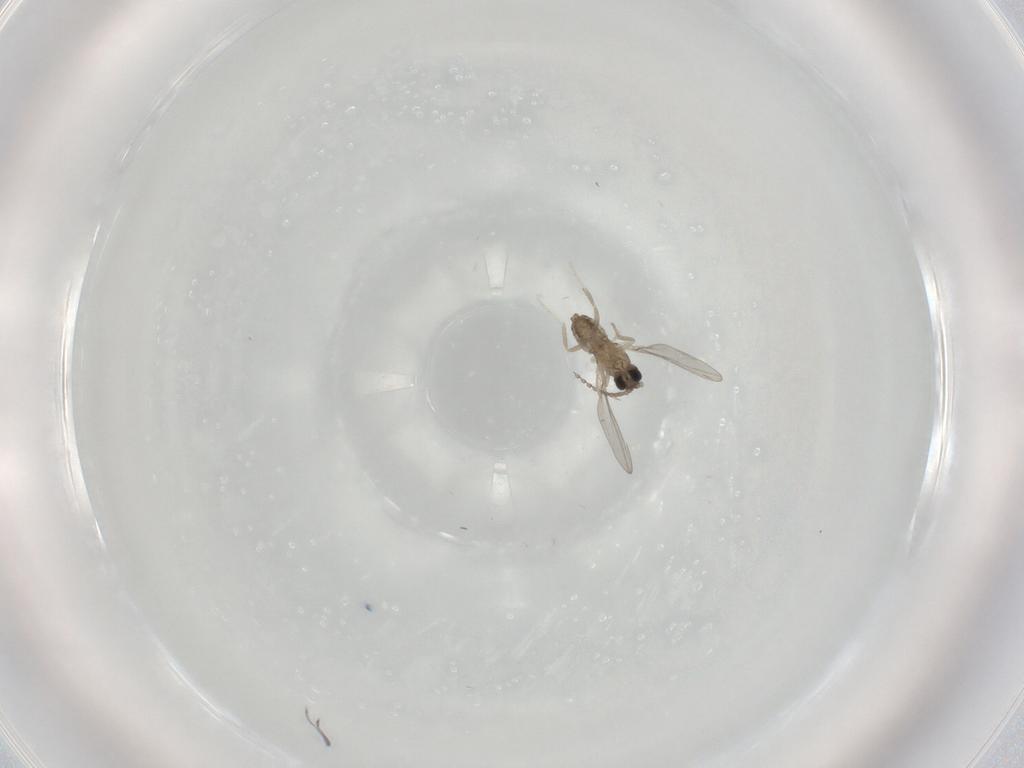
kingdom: Animalia
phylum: Arthropoda
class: Insecta
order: Diptera
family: Cecidomyiidae
